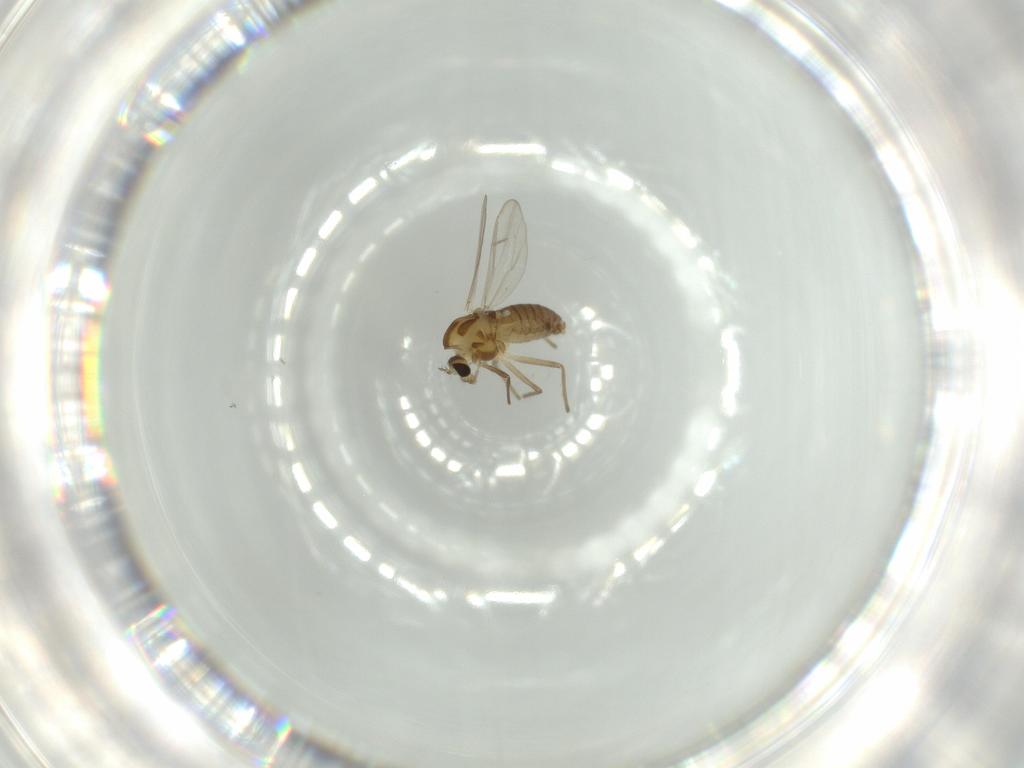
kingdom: Animalia
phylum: Arthropoda
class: Insecta
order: Diptera
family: Chironomidae
